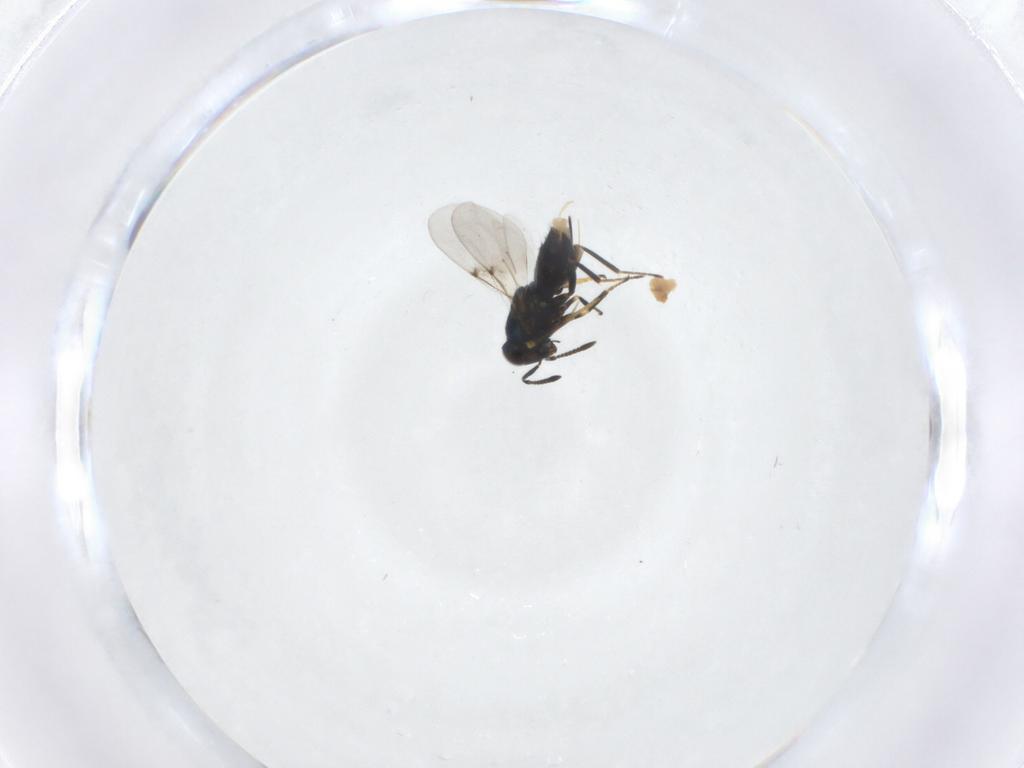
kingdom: Animalia
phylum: Arthropoda
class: Insecta
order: Hymenoptera
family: Encyrtidae
